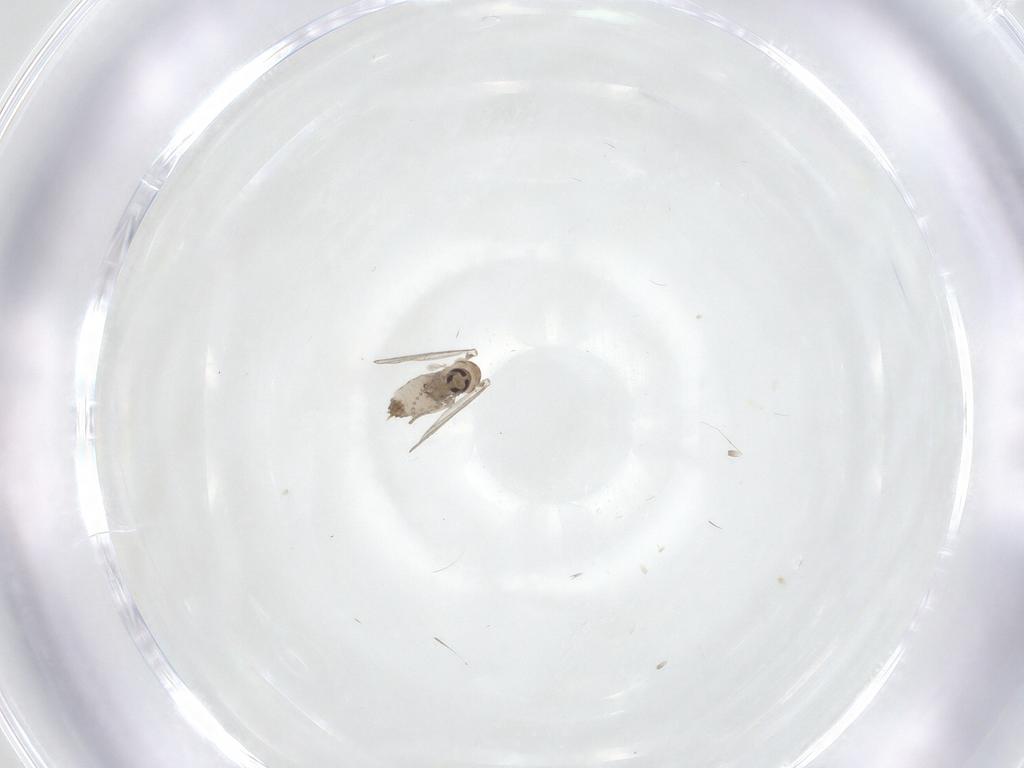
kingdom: Animalia
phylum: Arthropoda
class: Insecta
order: Diptera
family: Psychodidae
